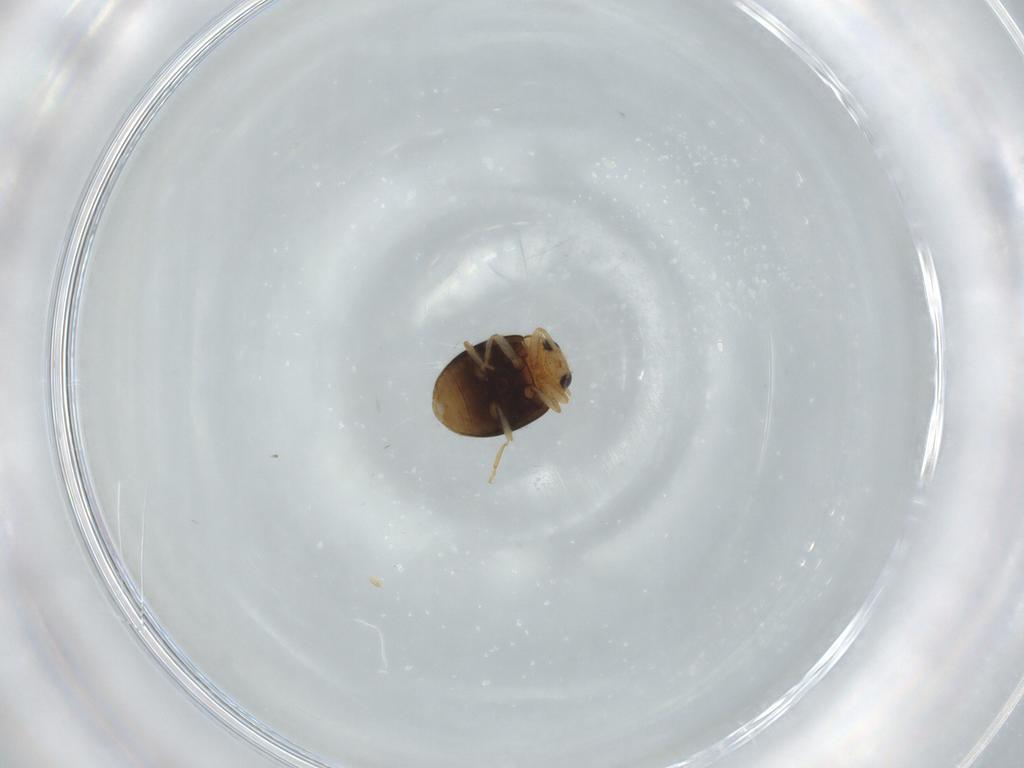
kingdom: Animalia
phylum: Arthropoda
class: Insecta
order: Coleoptera
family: Coccinellidae
